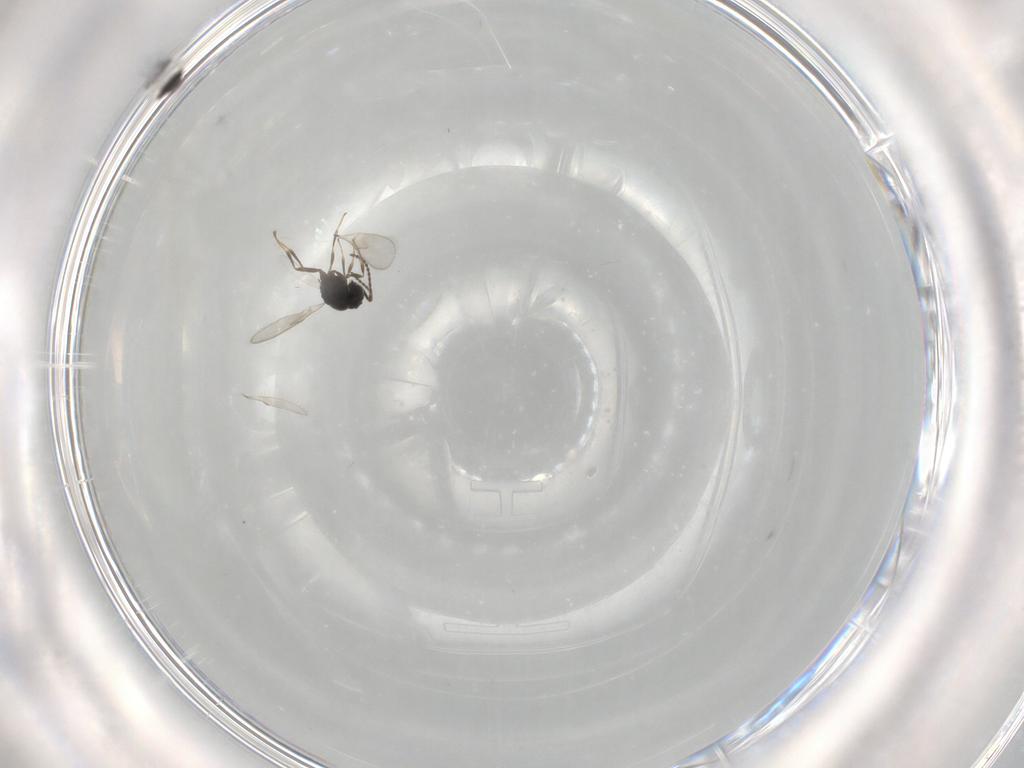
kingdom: Animalia
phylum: Arthropoda
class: Insecta
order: Hymenoptera
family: Scelionidae
